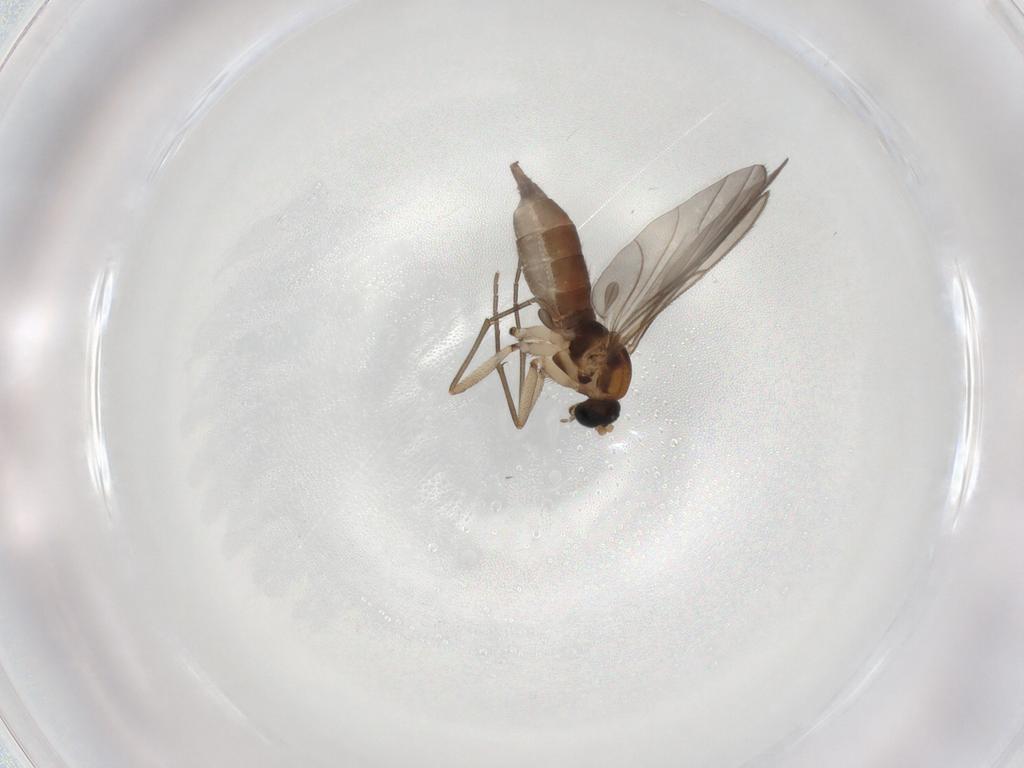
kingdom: Animalia
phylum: Arthropoda
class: Insecta
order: Diptera
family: Sciaridae
